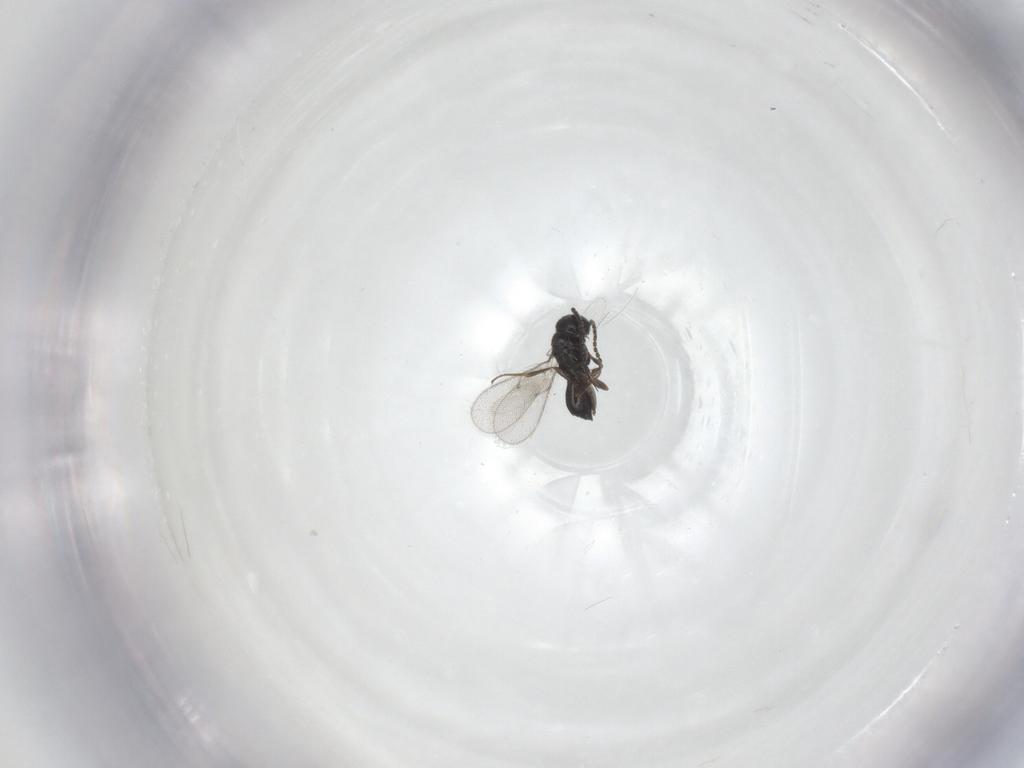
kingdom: Animalia
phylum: Arthropoda
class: Insecta
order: Hymenoptera
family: Scelionidae
